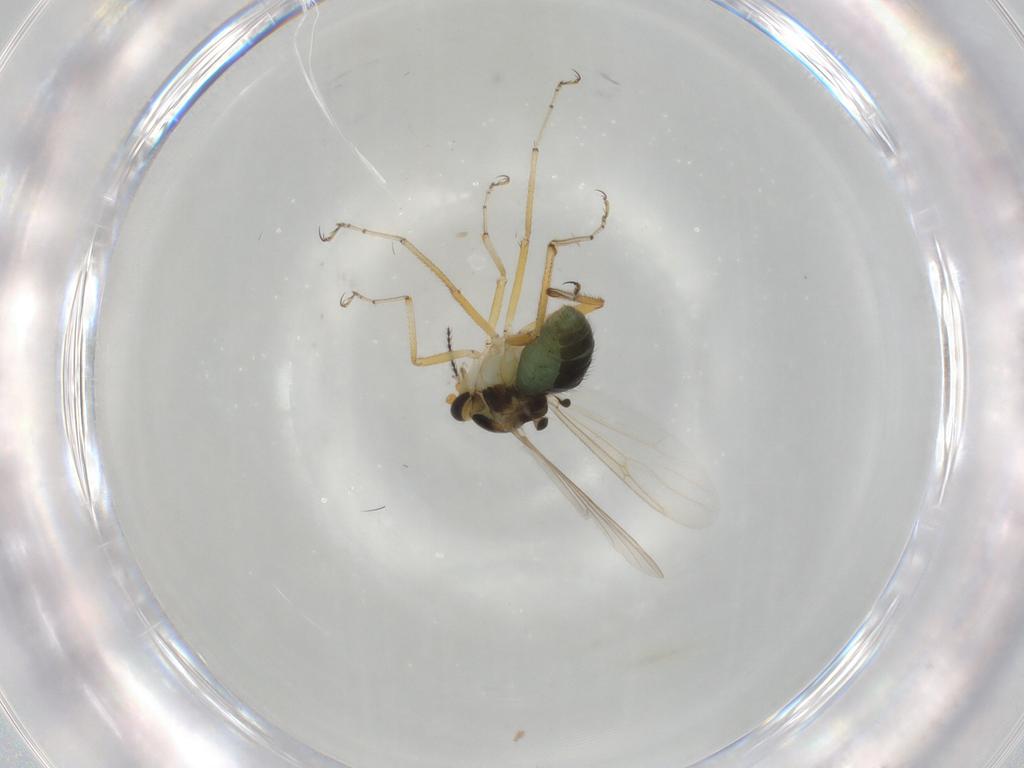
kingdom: Animalia
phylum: Arthropoda
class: Insecta
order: Diptera
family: Ceratopogonidae
